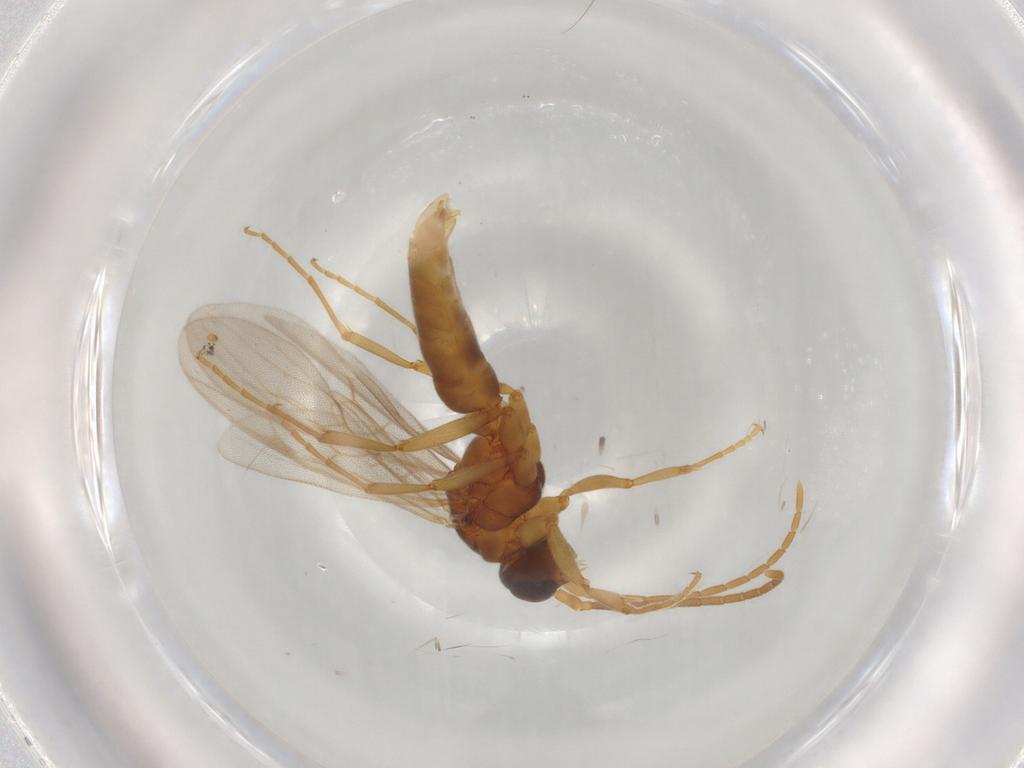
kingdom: Animalia
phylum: Arthropoda
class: Insecta
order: Hymenoptera
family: Formicidae
